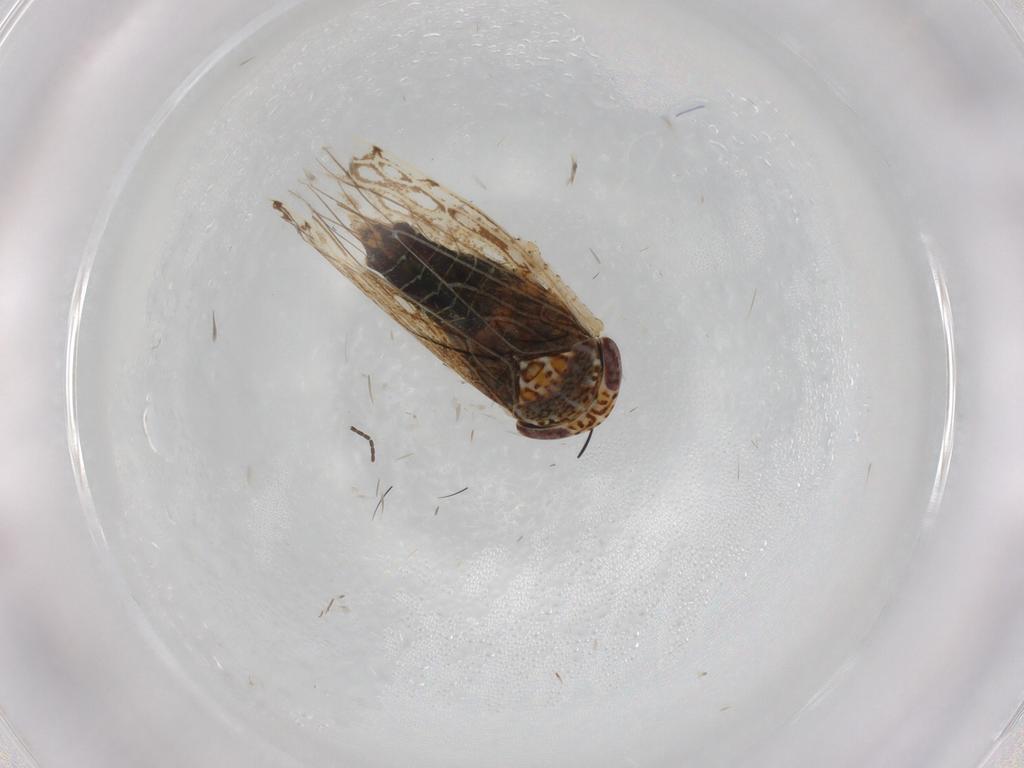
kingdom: Animalia
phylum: Arthropoda
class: Insecta
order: Hemiptera
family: Cicadellidae
